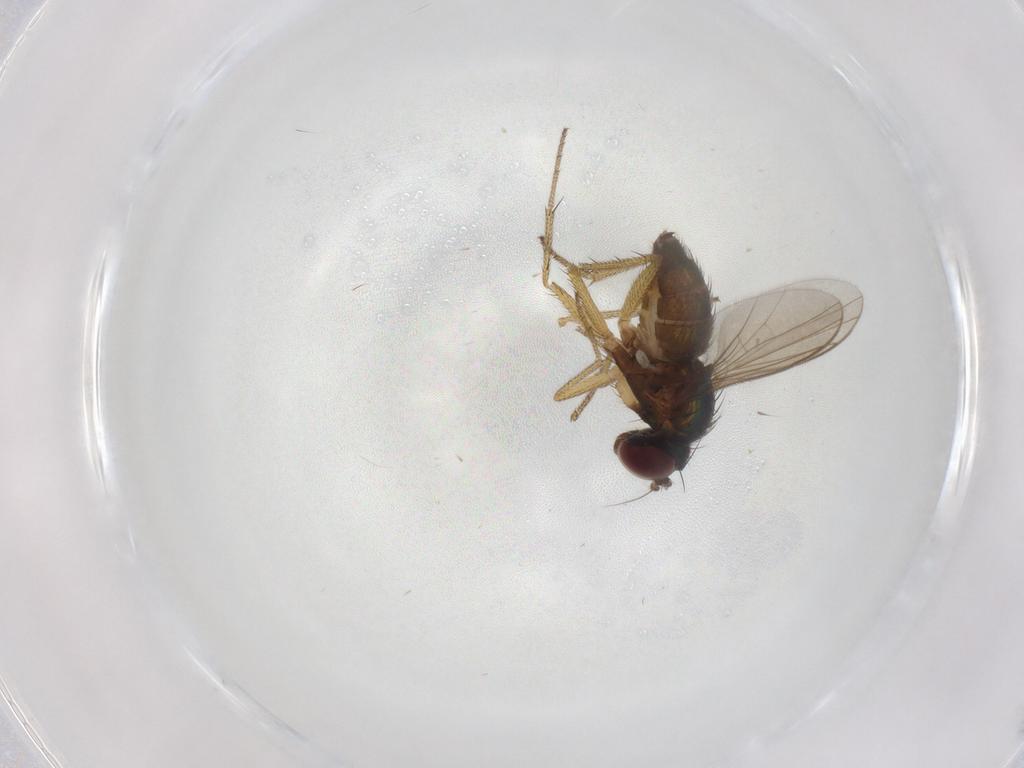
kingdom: Animalia
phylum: Arthropoda
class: Insecta
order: Diptera
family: Dolichopodidae
